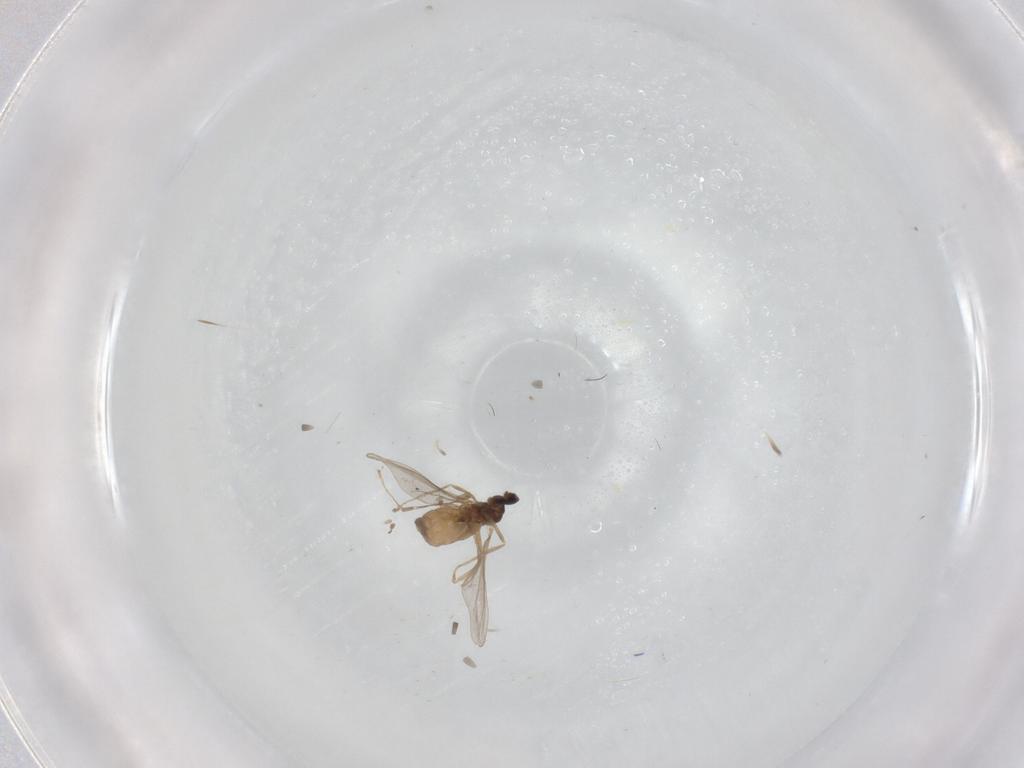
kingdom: Animalia
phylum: Arthropoda
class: Insecta
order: Diptera
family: Cecidomyiidae
